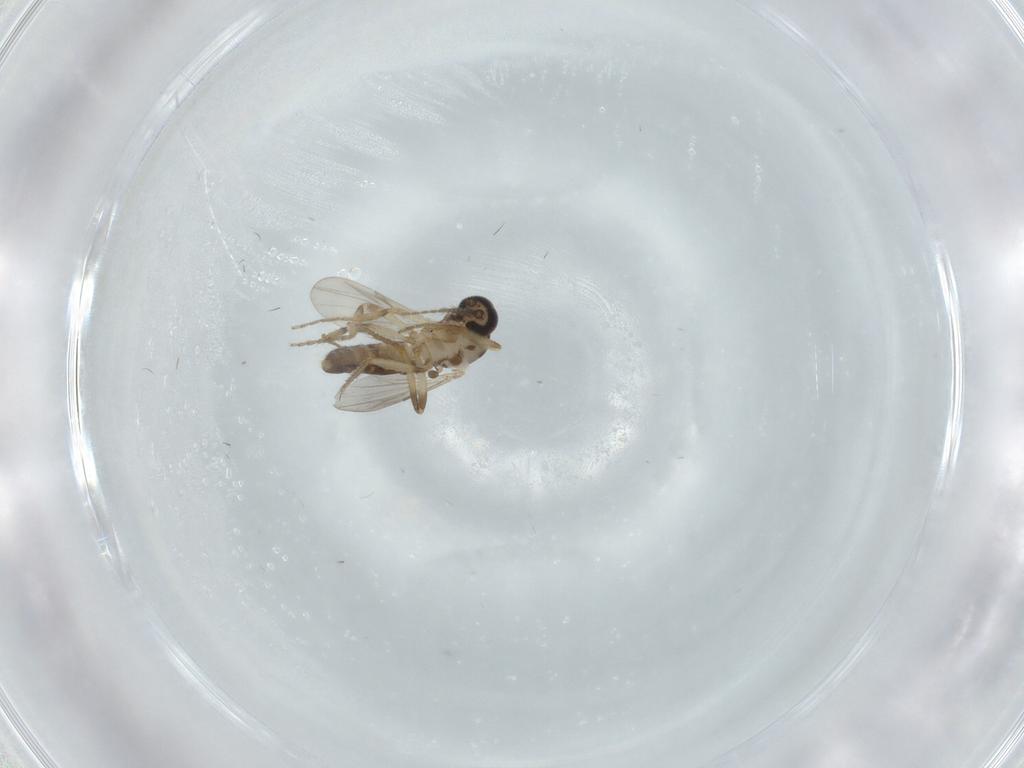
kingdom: Animalia
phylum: Arthropoda
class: Insecta
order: Diptera
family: Ceratopogonidae
